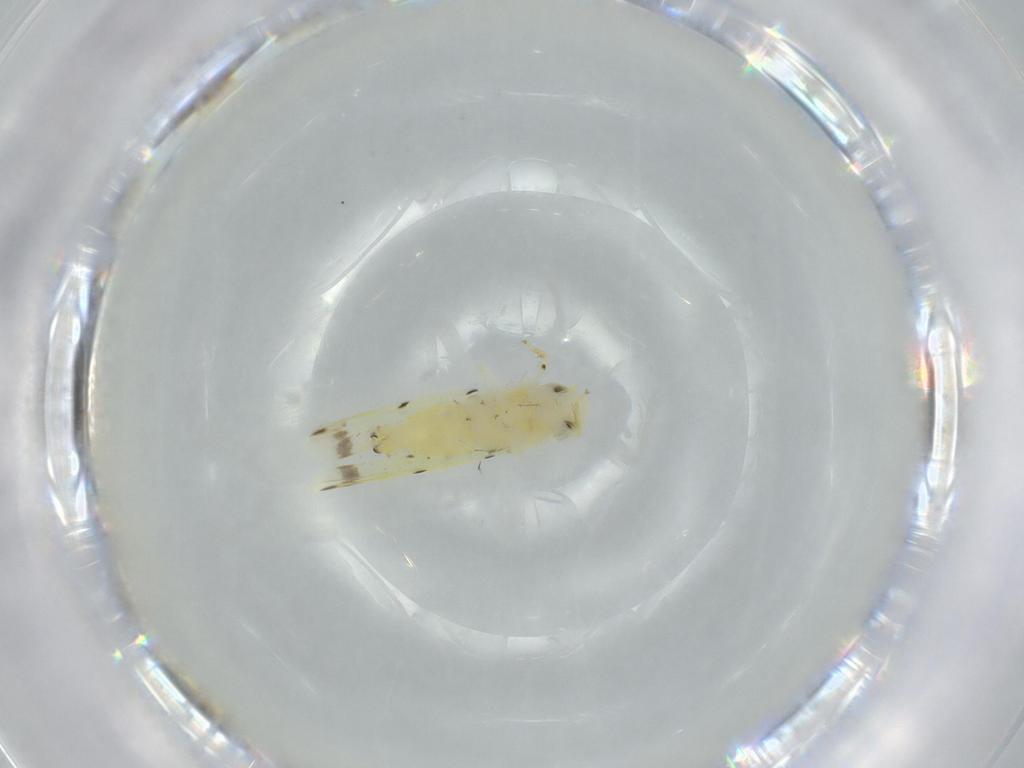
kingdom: Animalia
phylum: Arthropoda
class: Insecta
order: Hemiptera
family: Cicadellidae
